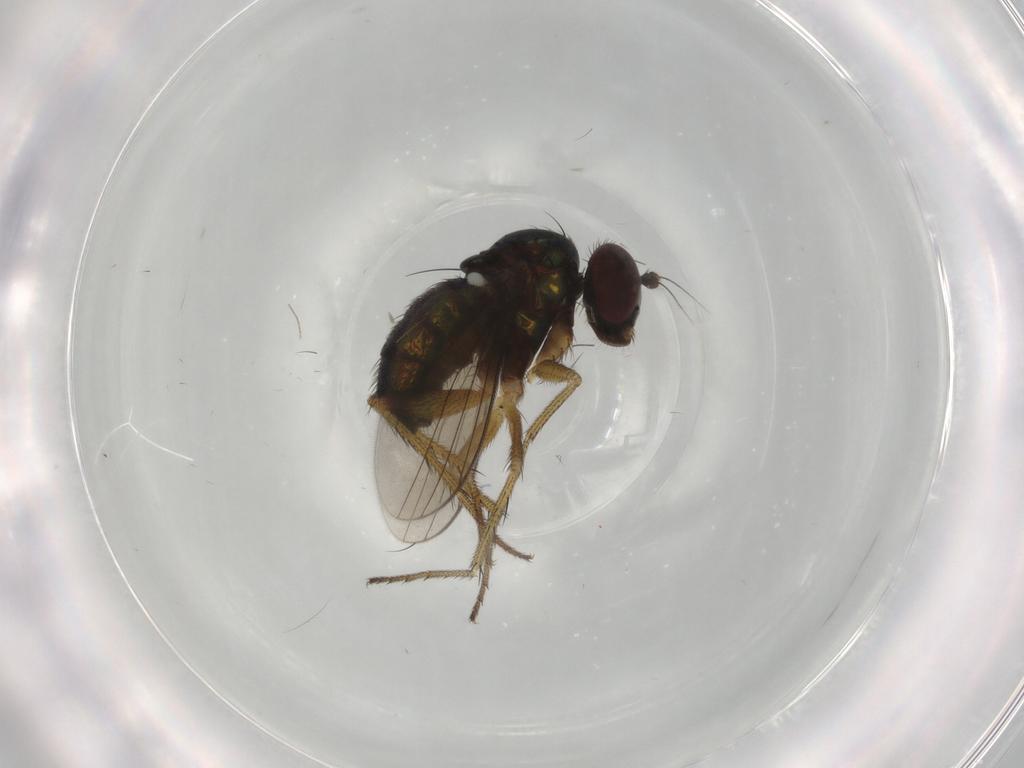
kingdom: Animalia
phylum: Arthropoda
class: Insecta
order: Diptera
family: Dolichopodidae
